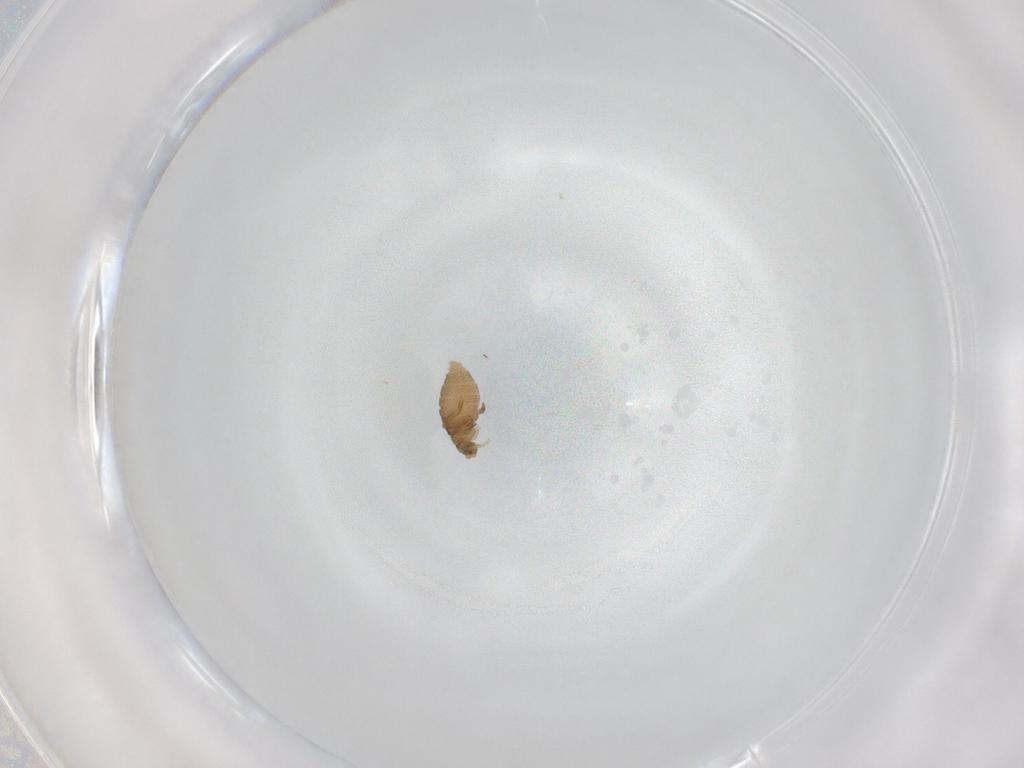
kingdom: Animalia
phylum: Arthropoda
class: Insecta
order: Diptera
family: Phoridae
